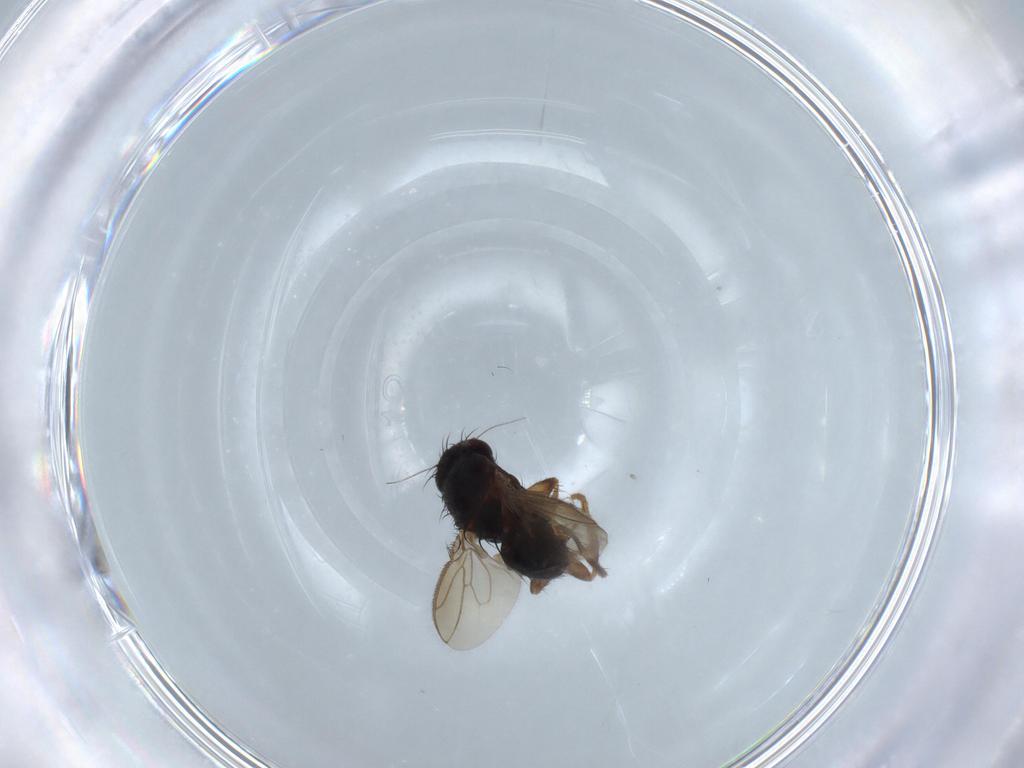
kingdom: Animalia
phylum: Arthropoda
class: Insecta
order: Diptera
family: Sphaeroceridae
